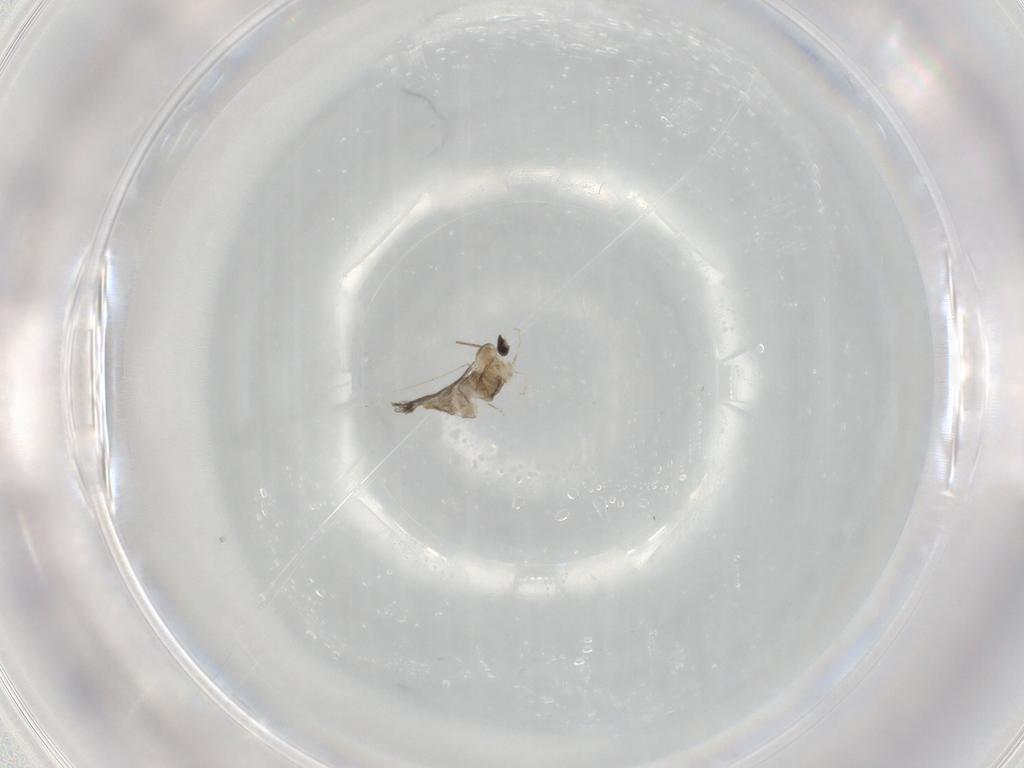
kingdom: Animalia
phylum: Arthropoda
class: Insecta
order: Diptera
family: Cecidomyiidae
